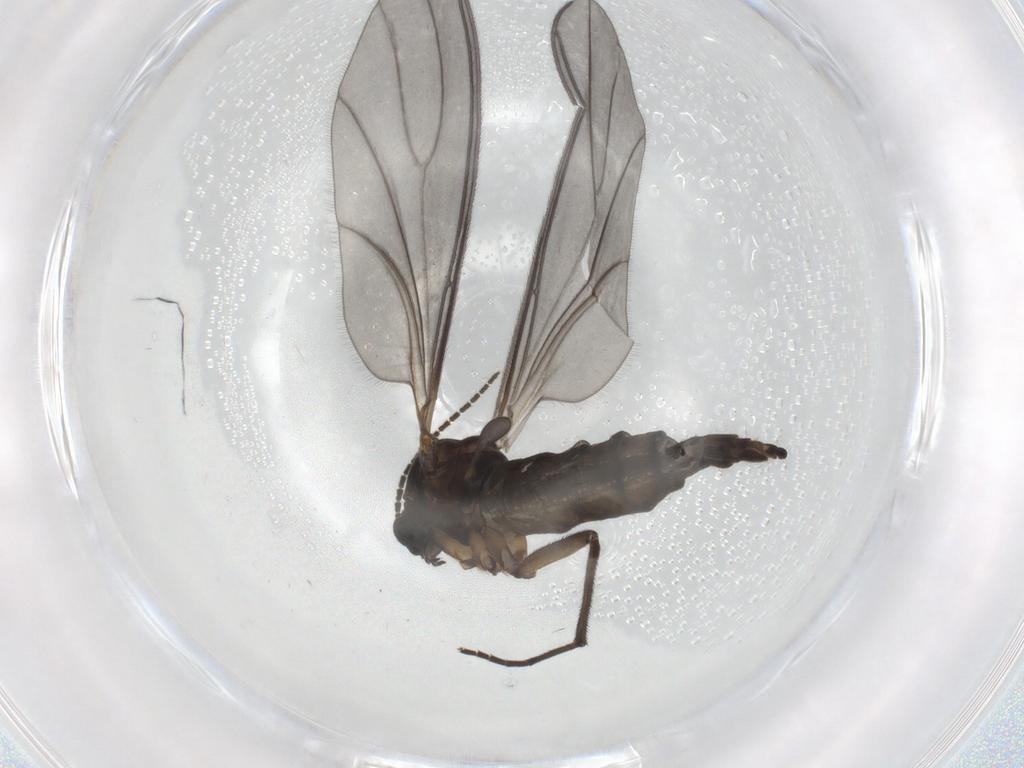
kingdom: Animalia
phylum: Arthropoda
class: Insecta
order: Diptera
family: Sciaridae
